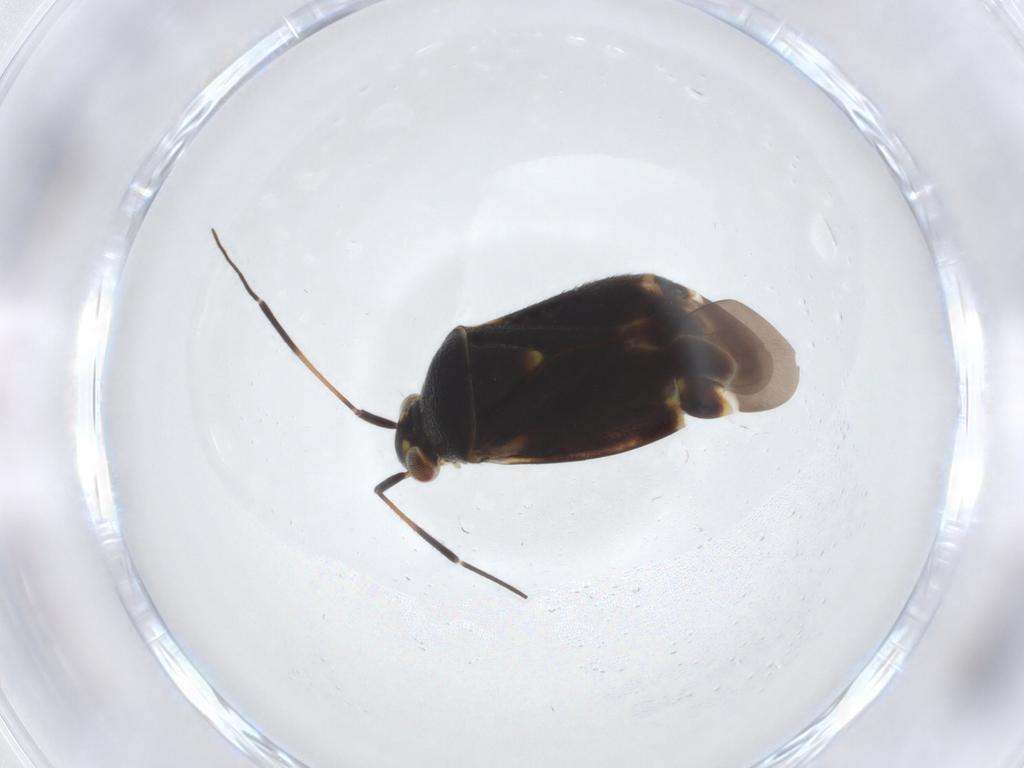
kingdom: Animalia
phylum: Arthropoda
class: Insecta
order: Hemiptera
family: Miridae
